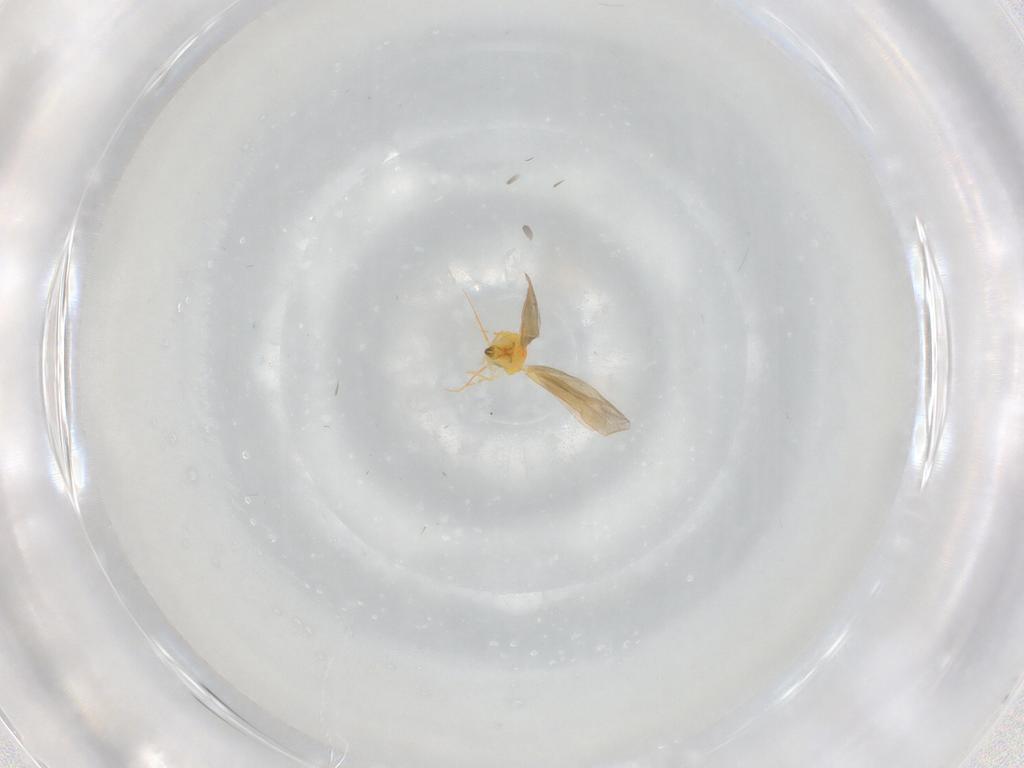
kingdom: Animalia
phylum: Arthropoda
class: Insecta
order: Hemiptera
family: Aleyrodidae
